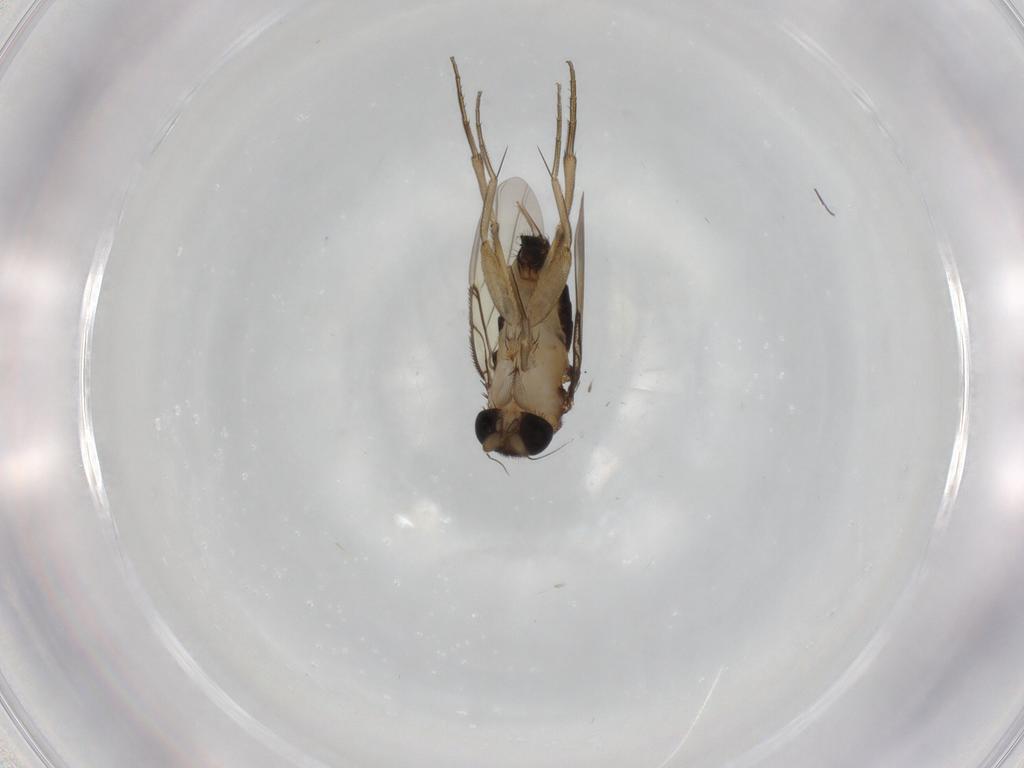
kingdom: Animalia
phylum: Arthropoda
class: Insecta
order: Diptera
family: Phoridae
